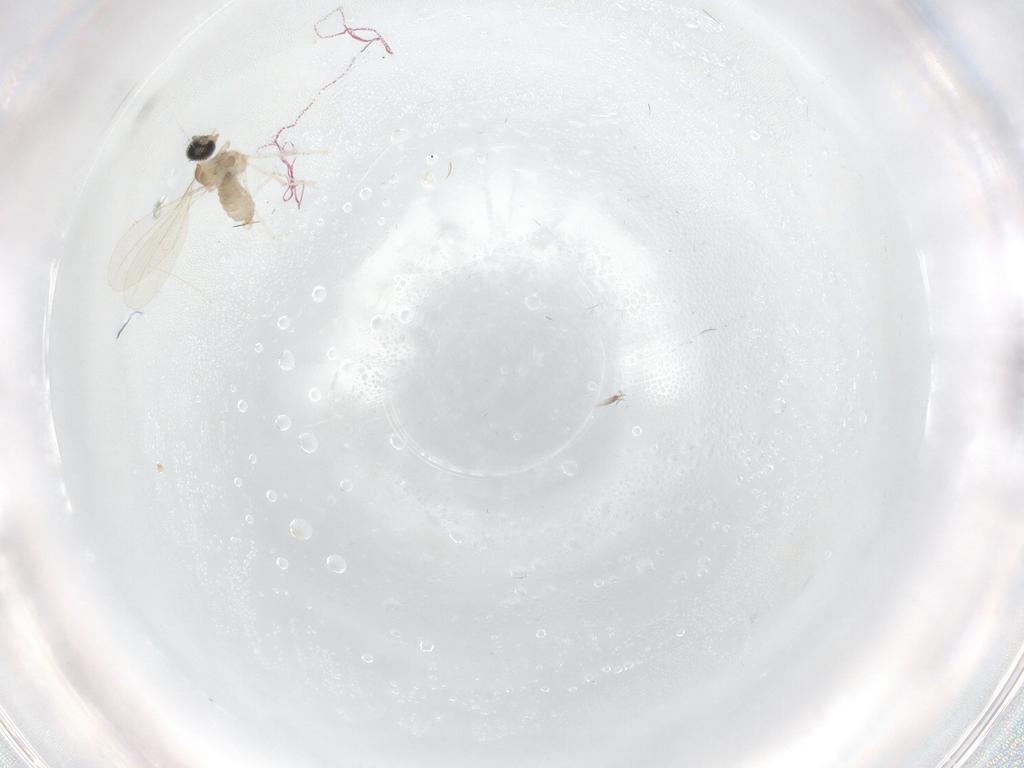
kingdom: Animalia
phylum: Arthropoda
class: Insecta
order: Diptera
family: Cecidomyiidae
